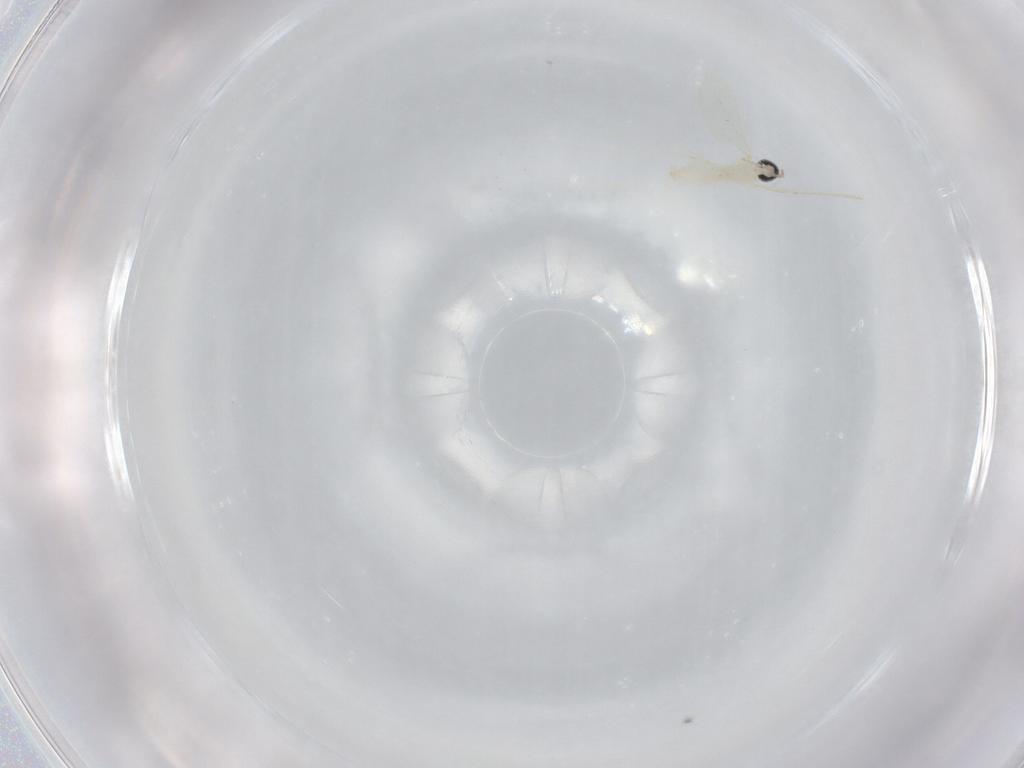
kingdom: Animalia
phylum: Arthropoda
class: Insecta
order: Diptera
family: Cecidomyiidae
